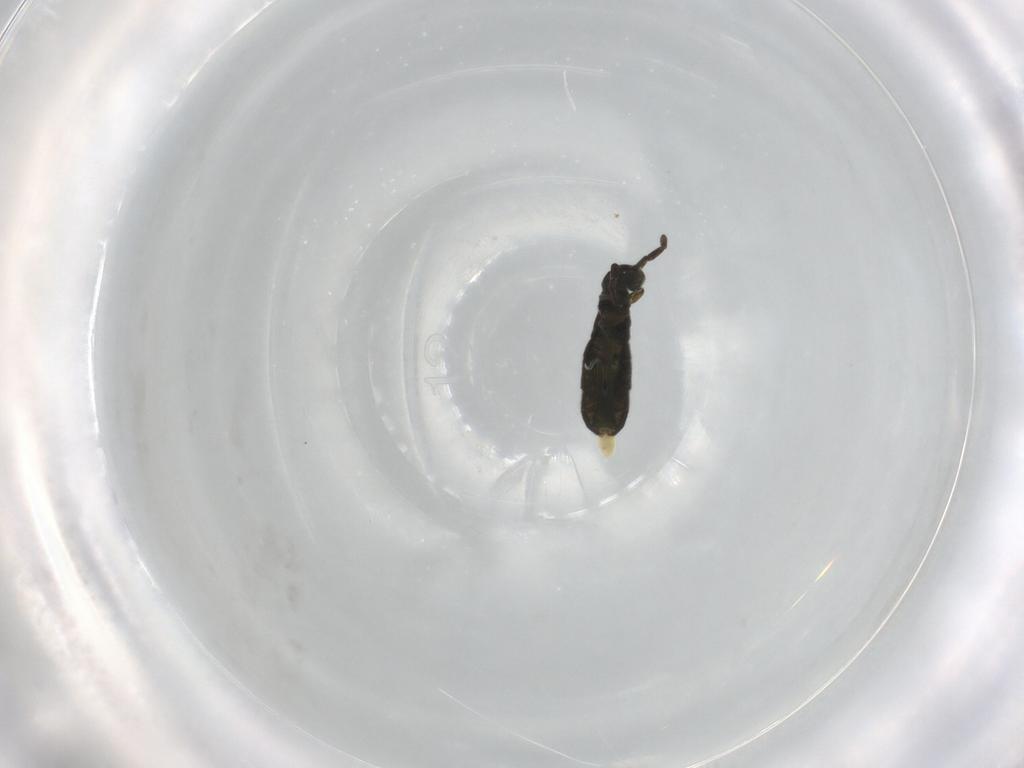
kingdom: Animalia
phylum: Arthropoda
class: Collembola
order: Entomobryomorpha
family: Isotomidae
